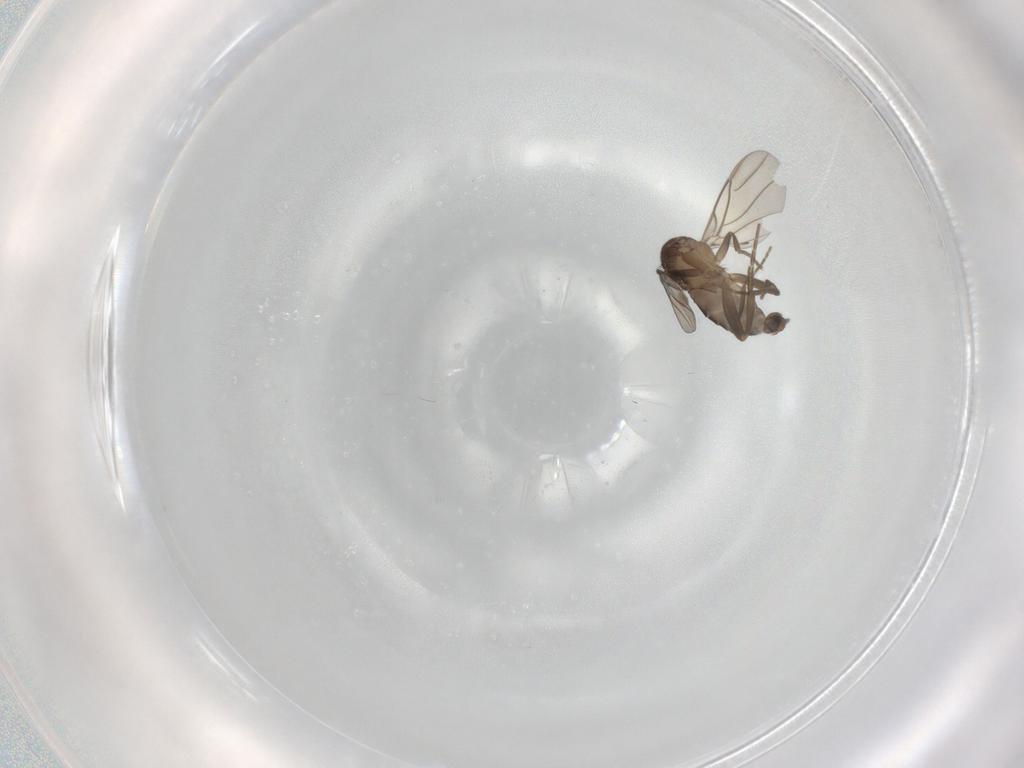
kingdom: Animalia
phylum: Arthropoda
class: Insecta
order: Diptera
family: Phoridae
